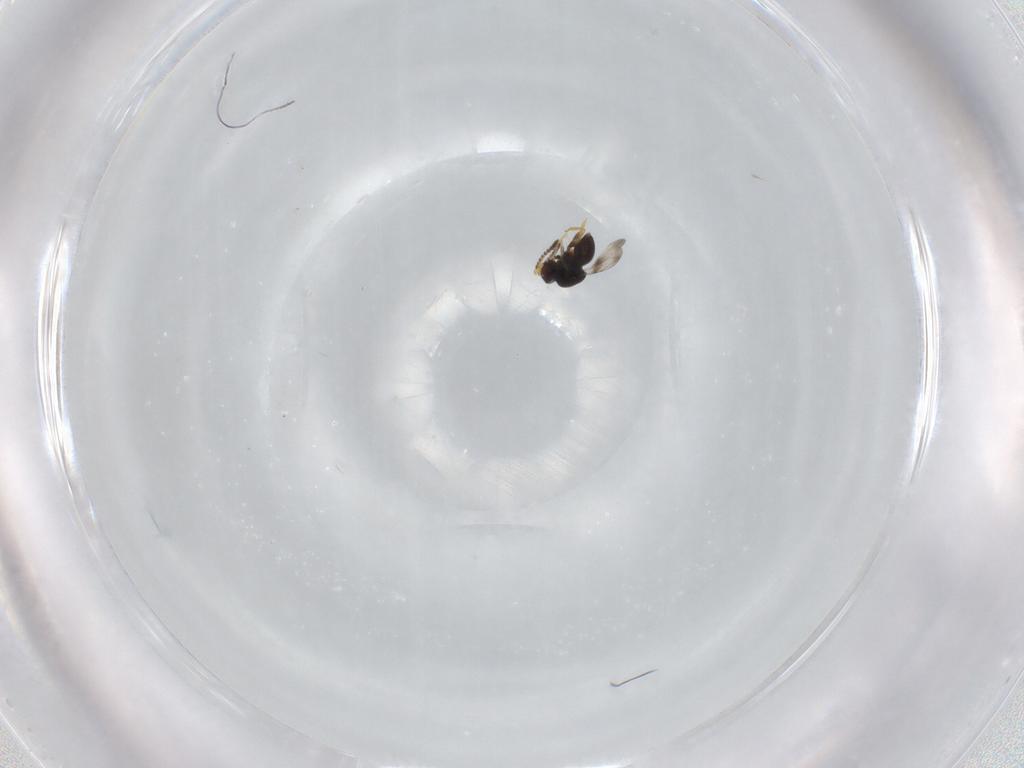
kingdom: Animalia
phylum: Arthropoda
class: Insecta
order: Hymenoptera
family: Ceraphronidae
